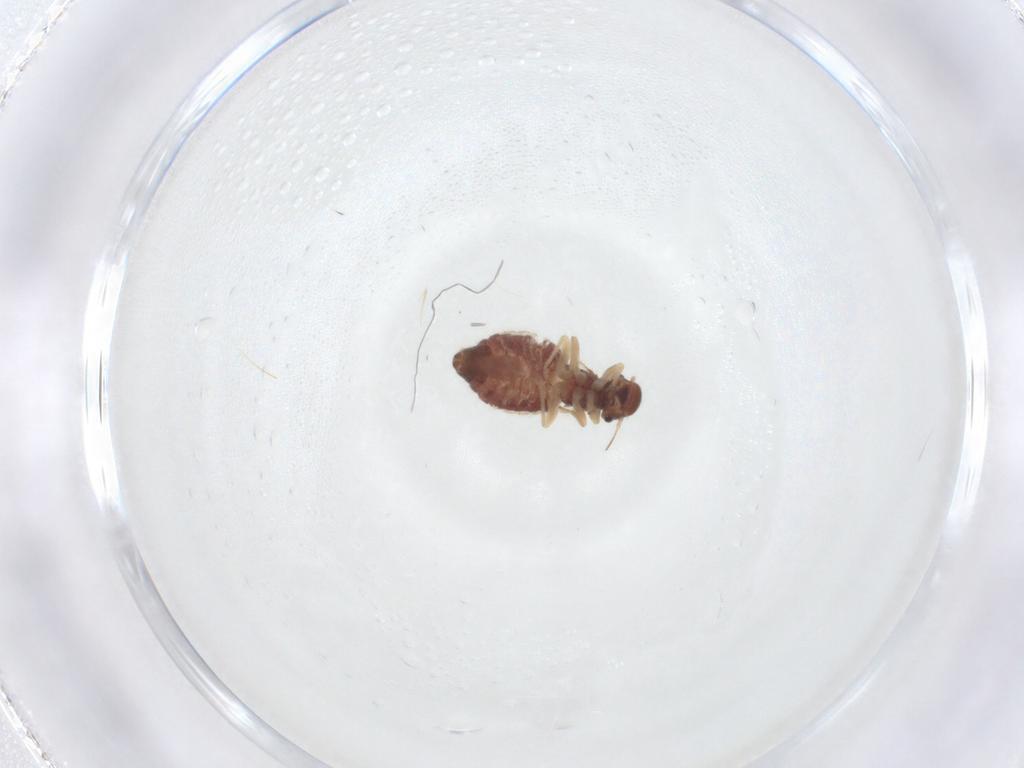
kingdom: Animalia
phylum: Arthropoda
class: Insecta
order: Psocodea
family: Archipsocidae
